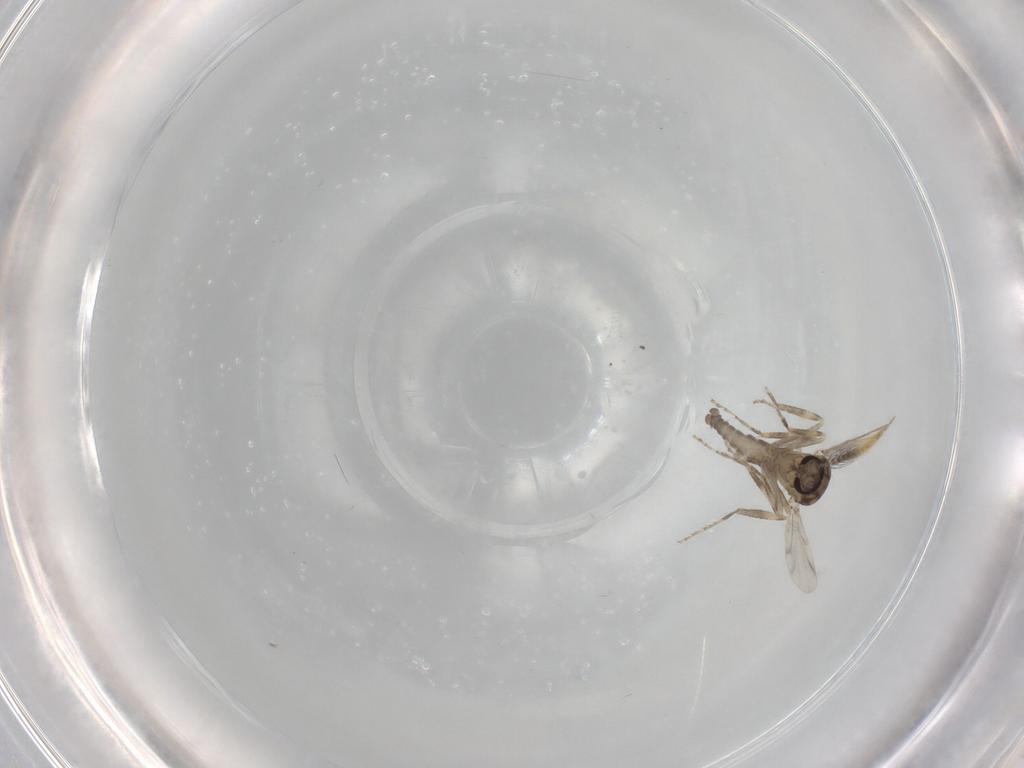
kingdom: Animalia
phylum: Arthropoda
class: Insecta
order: Diptera
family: Ceratopogonidae
